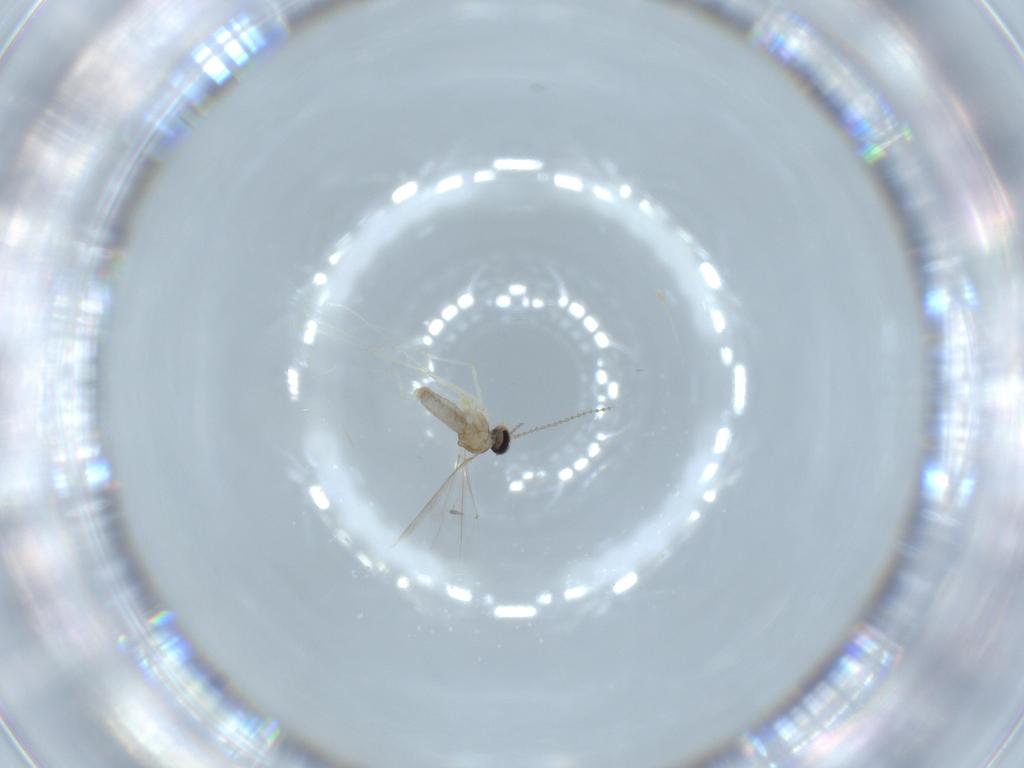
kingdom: Animalia
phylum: Arthropoda
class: Insecta
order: Diptera
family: Cecidomyiidae
